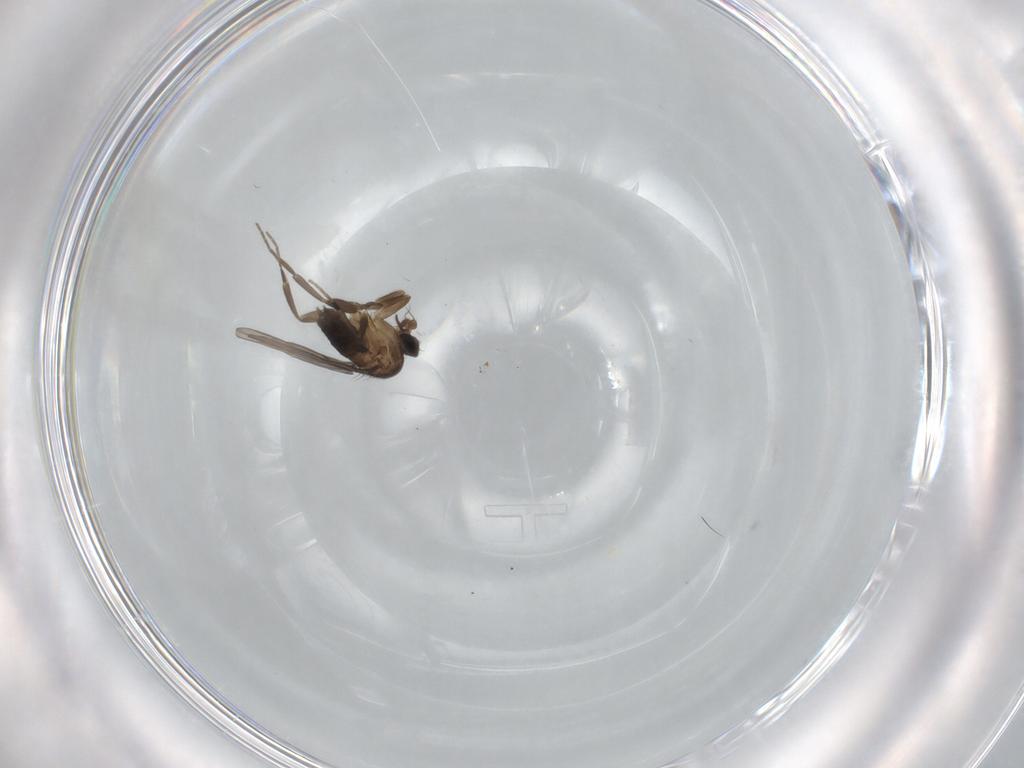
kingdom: Animalia
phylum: Arthropoda
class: Insecta
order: Diptera
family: Phoridae
